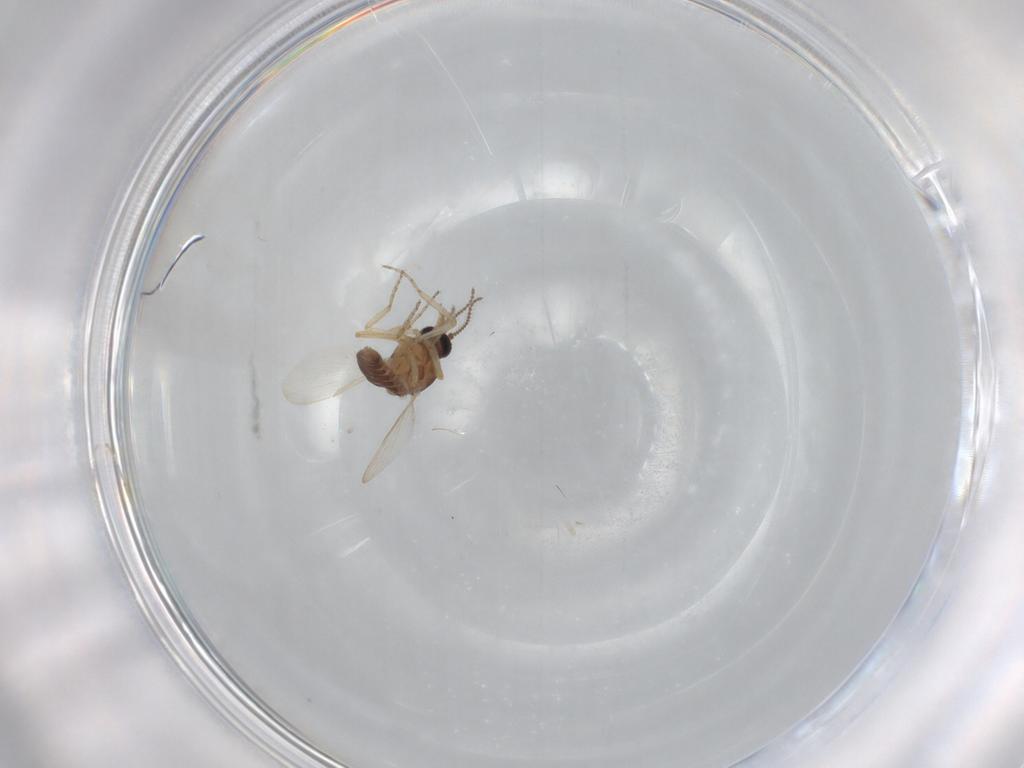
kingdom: Animalia
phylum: Arthropoda
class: Insecta
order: Diptera
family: Ceratopogonidae
